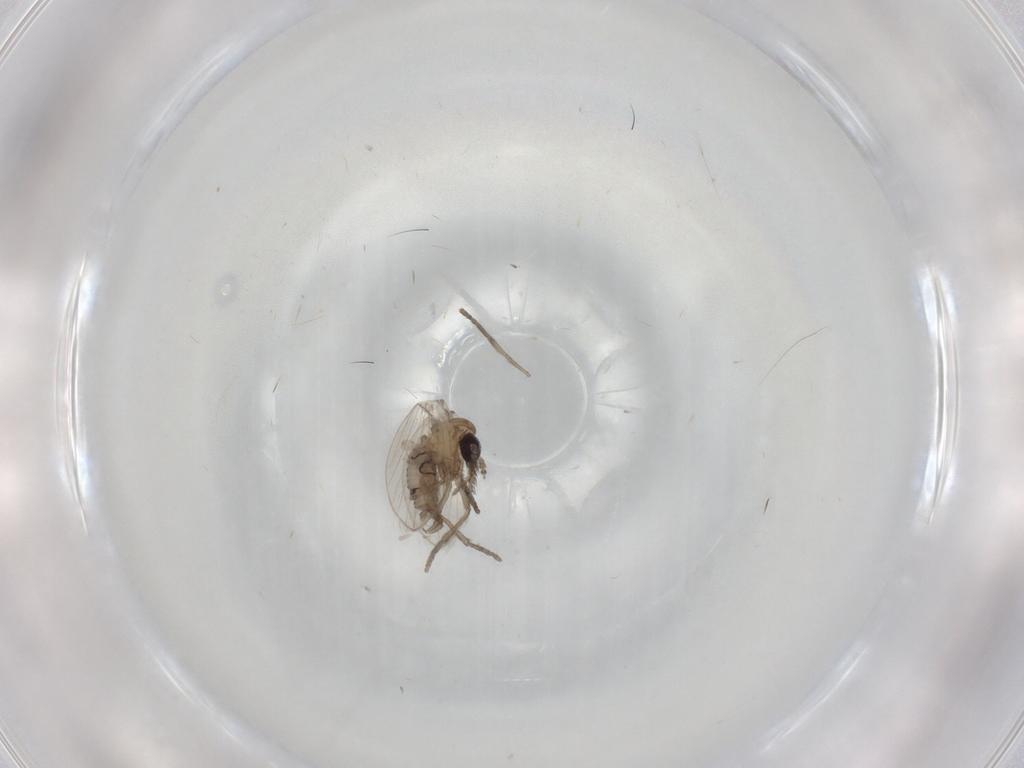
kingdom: Animalia
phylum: Arthropoda
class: Insecta
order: Diptera
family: Psychodidae
